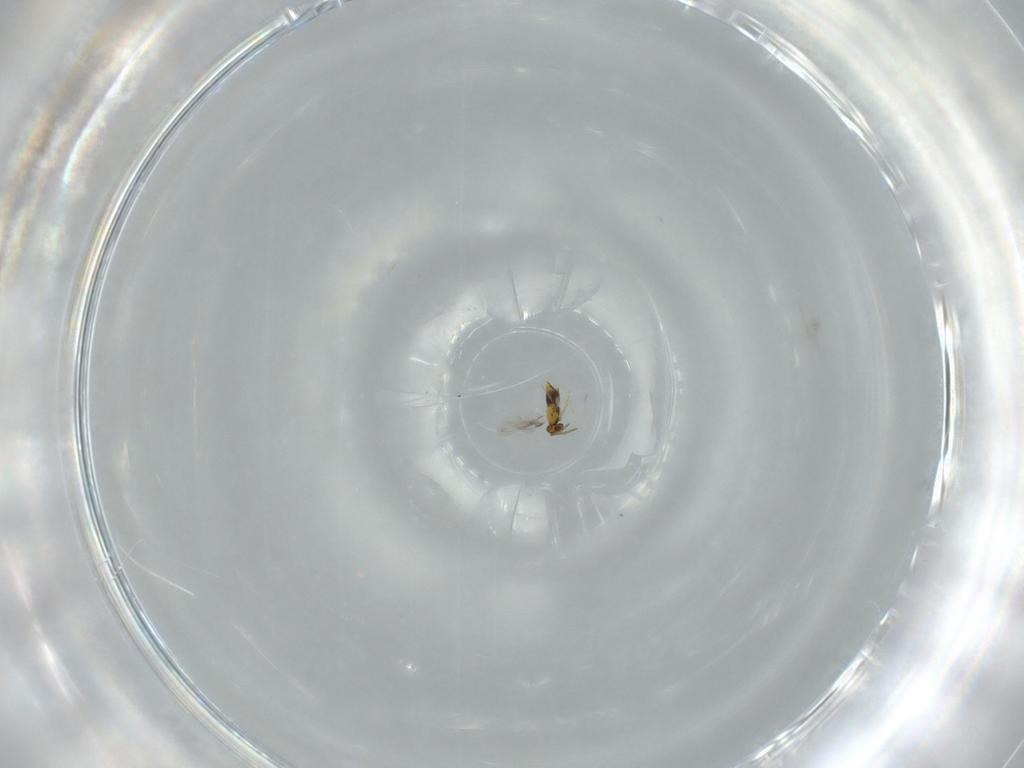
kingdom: Animalia
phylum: Arthropoda
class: Insecta
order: Hymenoptera
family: Aphelinidae
